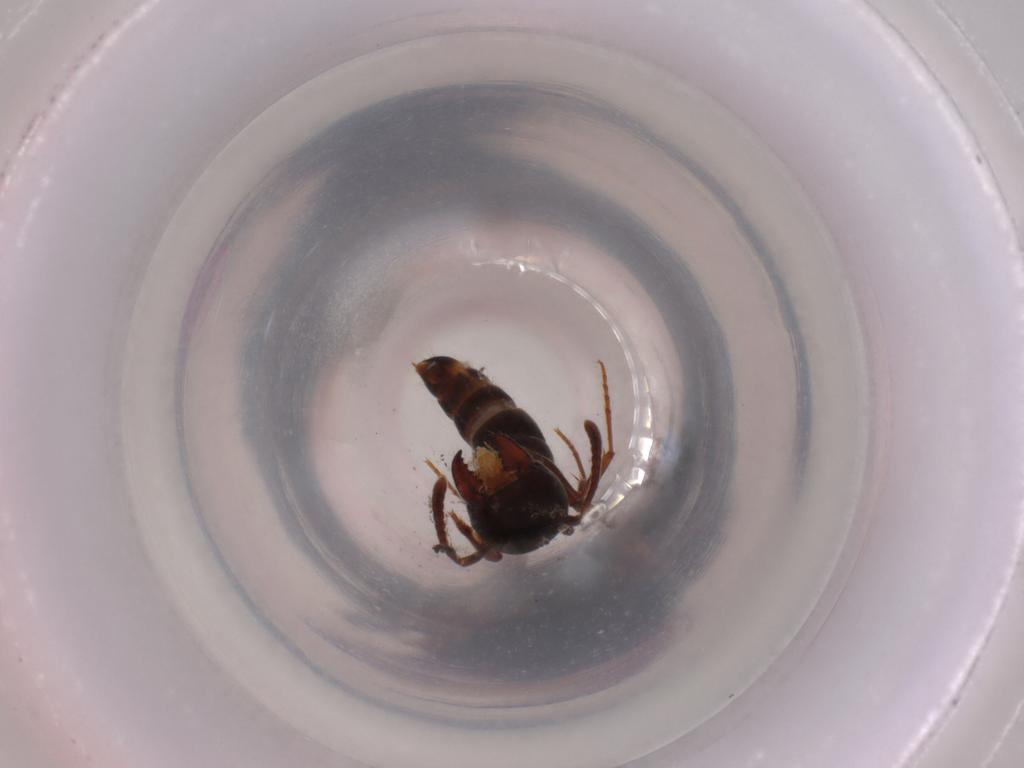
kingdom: Animalia
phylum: Arthropoda
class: Insecta
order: Hymenoptera
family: Formicidae
